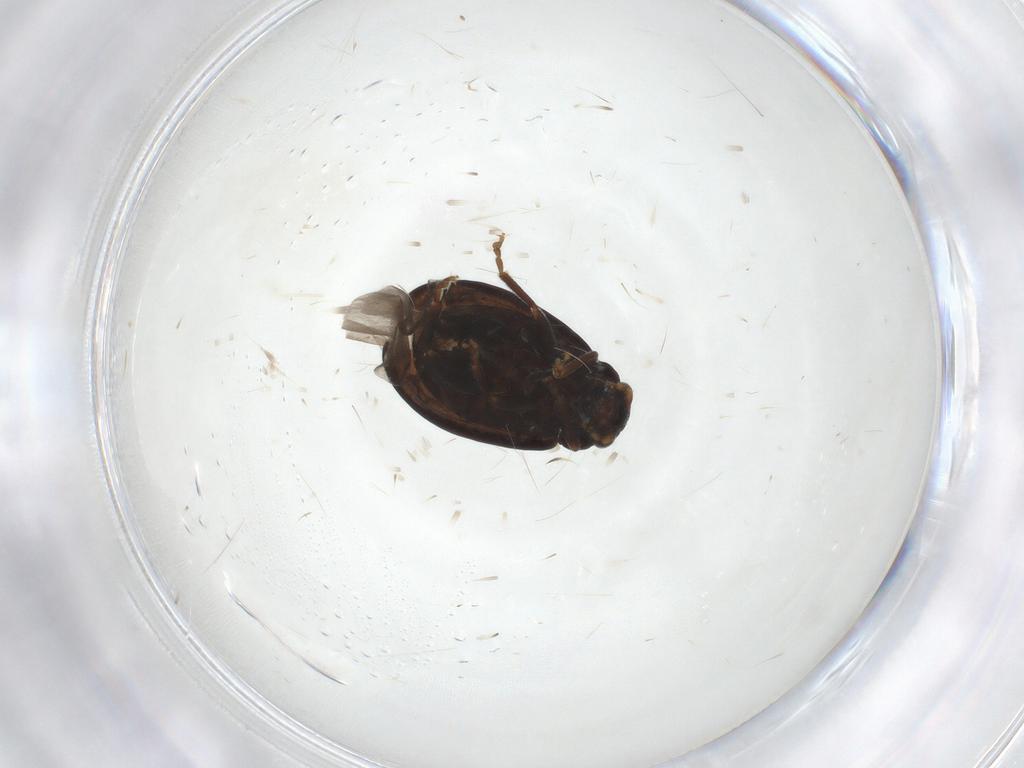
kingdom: Animalia
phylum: Arthropoda
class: Insecta
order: Coleoptera
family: Chrysomelidae
